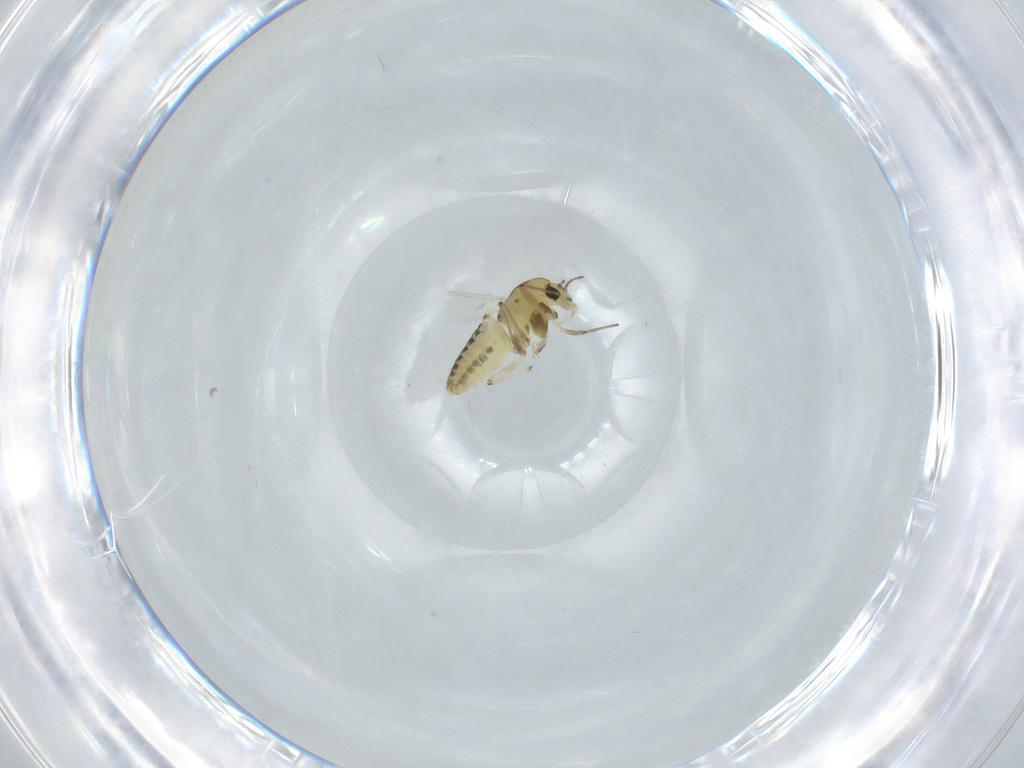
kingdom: Animalia
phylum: Arthropoda
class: Insecta
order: Diptera
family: Chironomidae
